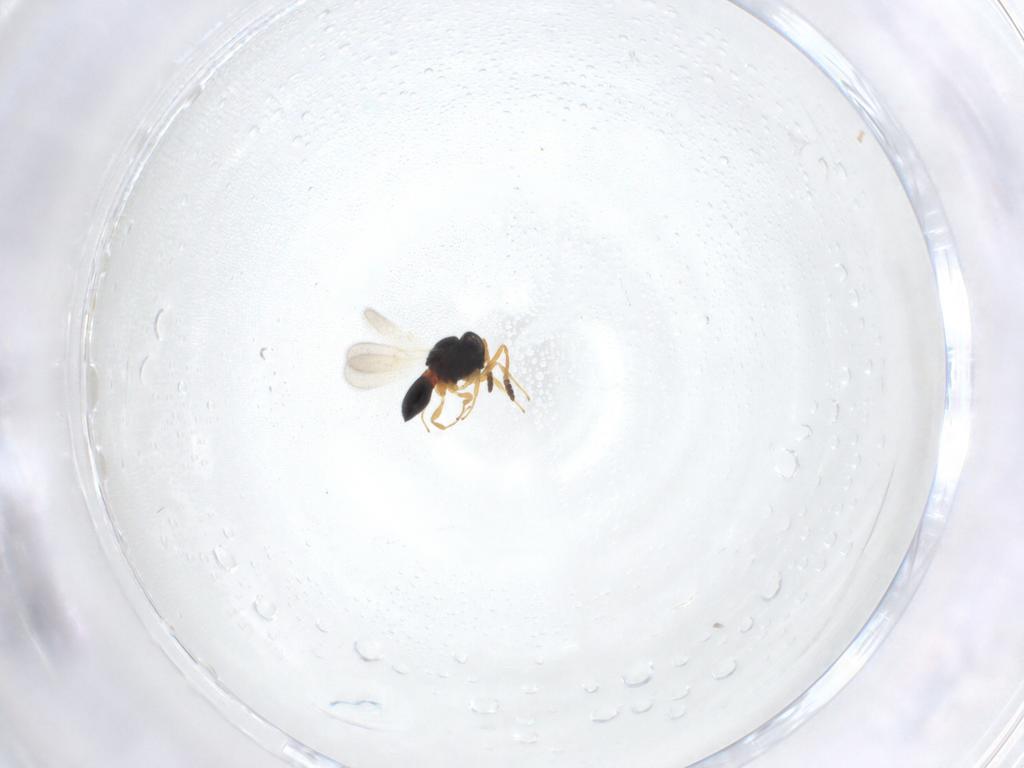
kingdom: Animalia
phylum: Arthropoda
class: Insecta
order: Hymenoptera
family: Scelionidae
